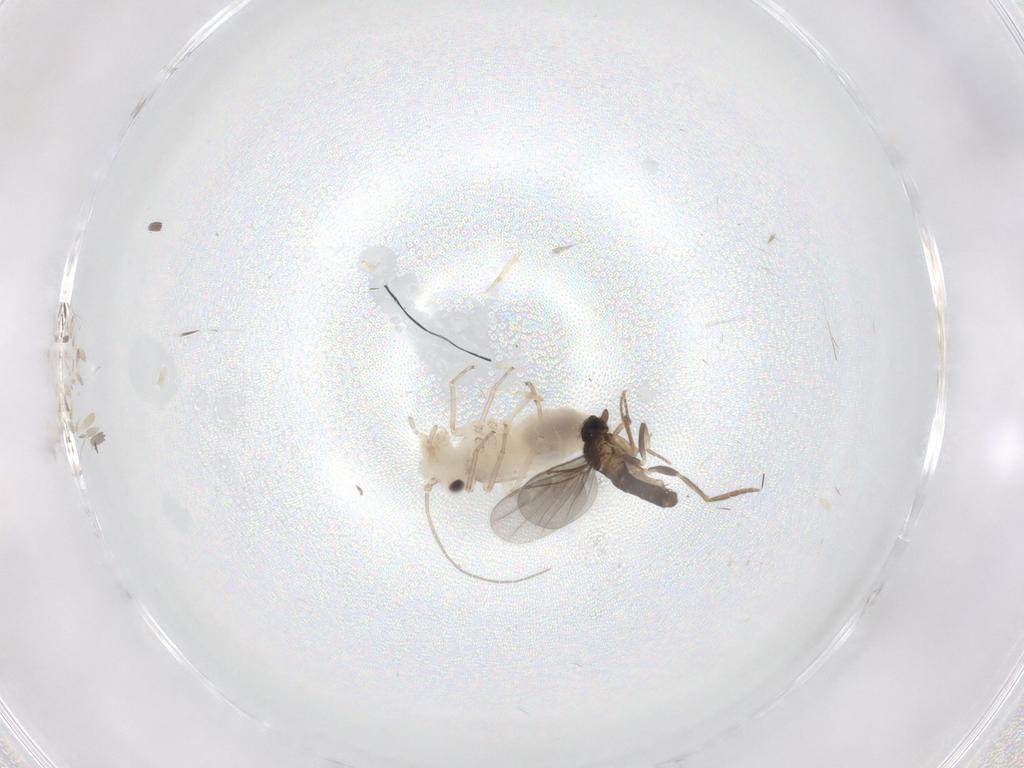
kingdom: Animalia
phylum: Arthropoda
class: Insecta
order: Psocodea
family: Stenopsocidae
